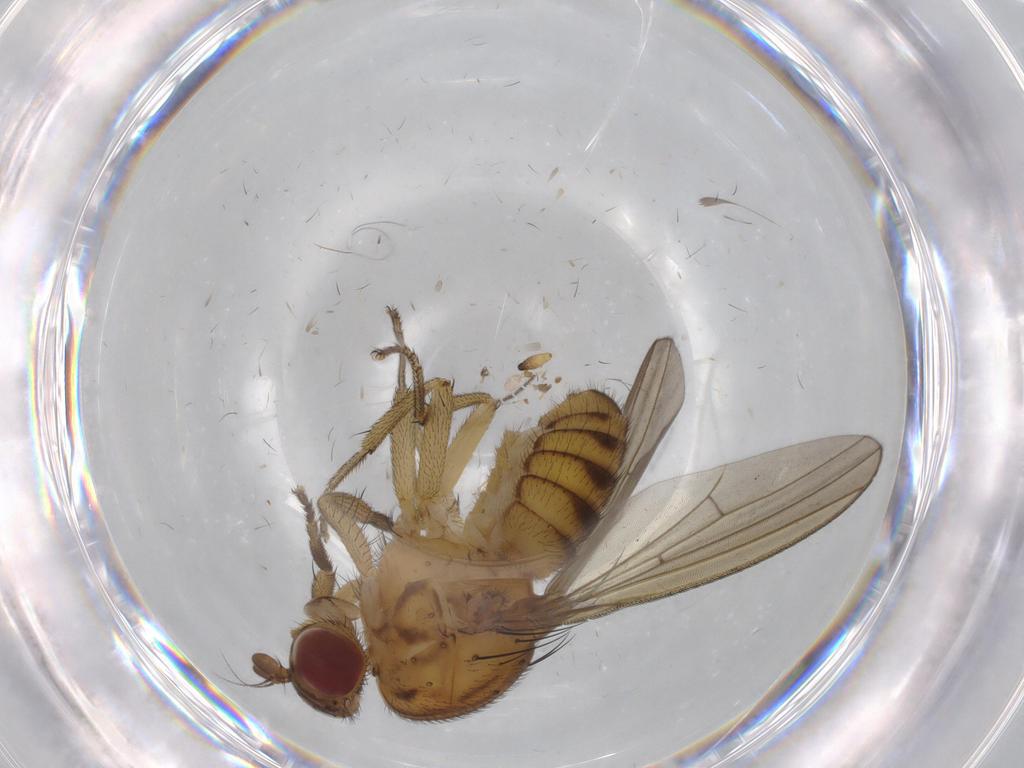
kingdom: Animalia
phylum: Arthropoda
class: Insecta
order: Diptera
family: Sciaridae
